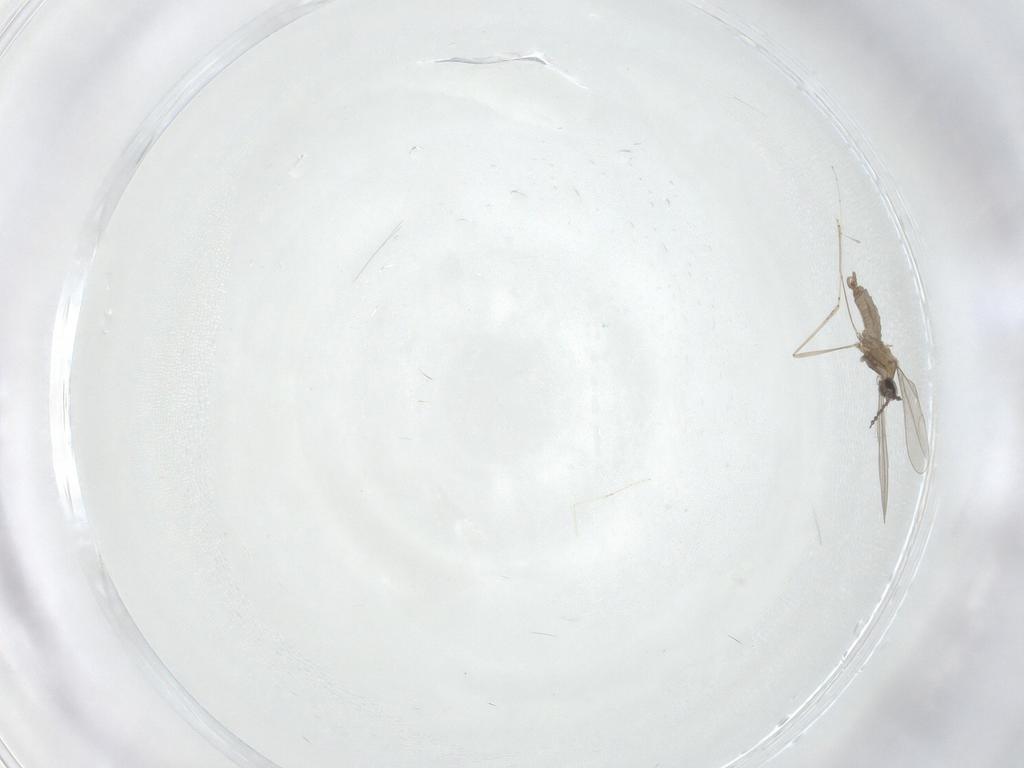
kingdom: Animalia
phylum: Arthropoda
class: Insecta
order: Diptera
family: Cecidomyiidae
